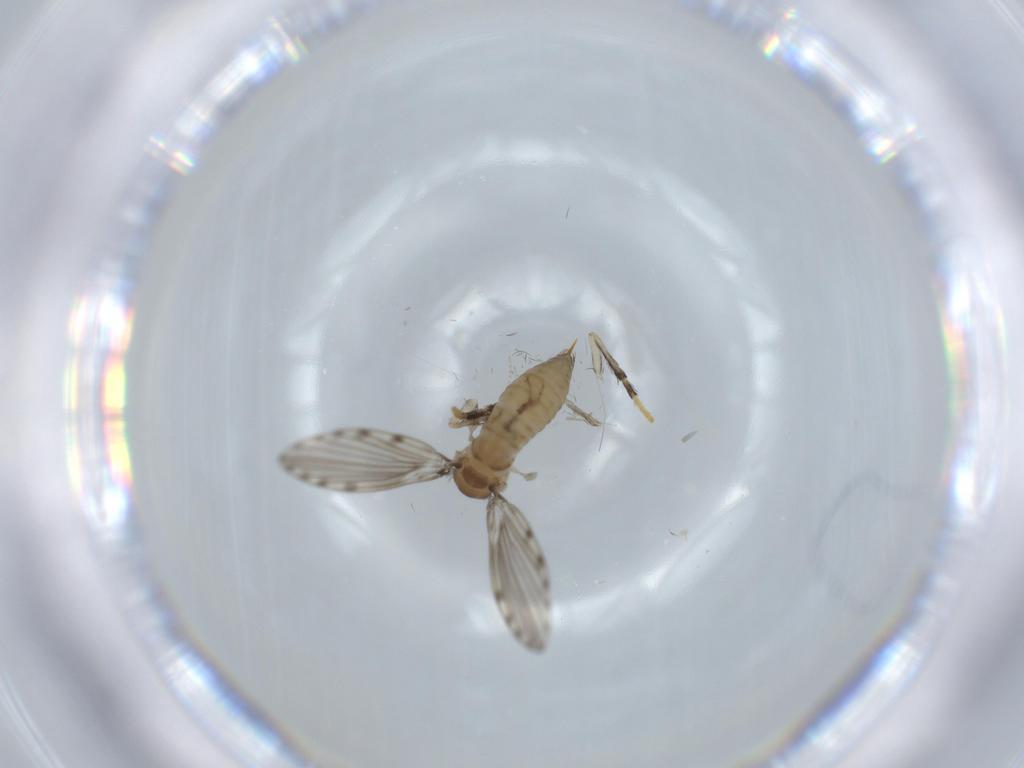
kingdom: Animalia
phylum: Arthropoda
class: Insecta
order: Diptera
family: Psychodidae
